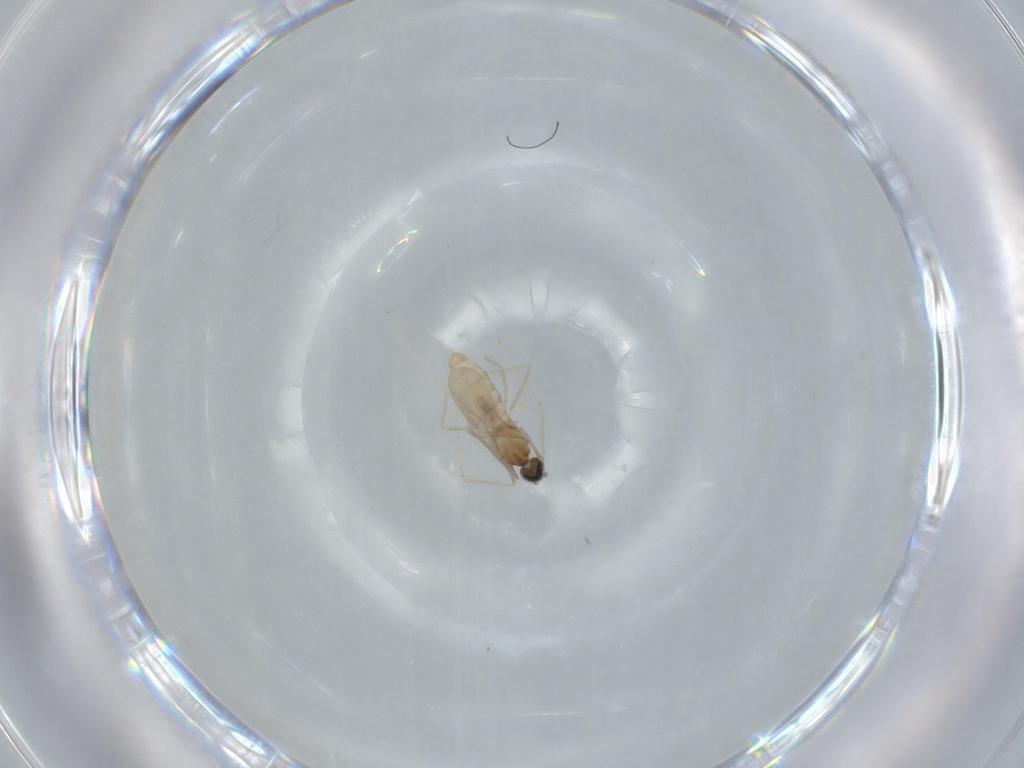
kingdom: Animalia
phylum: Arthropoda
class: Insecta
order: Diptera
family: Cecidomyiidae
